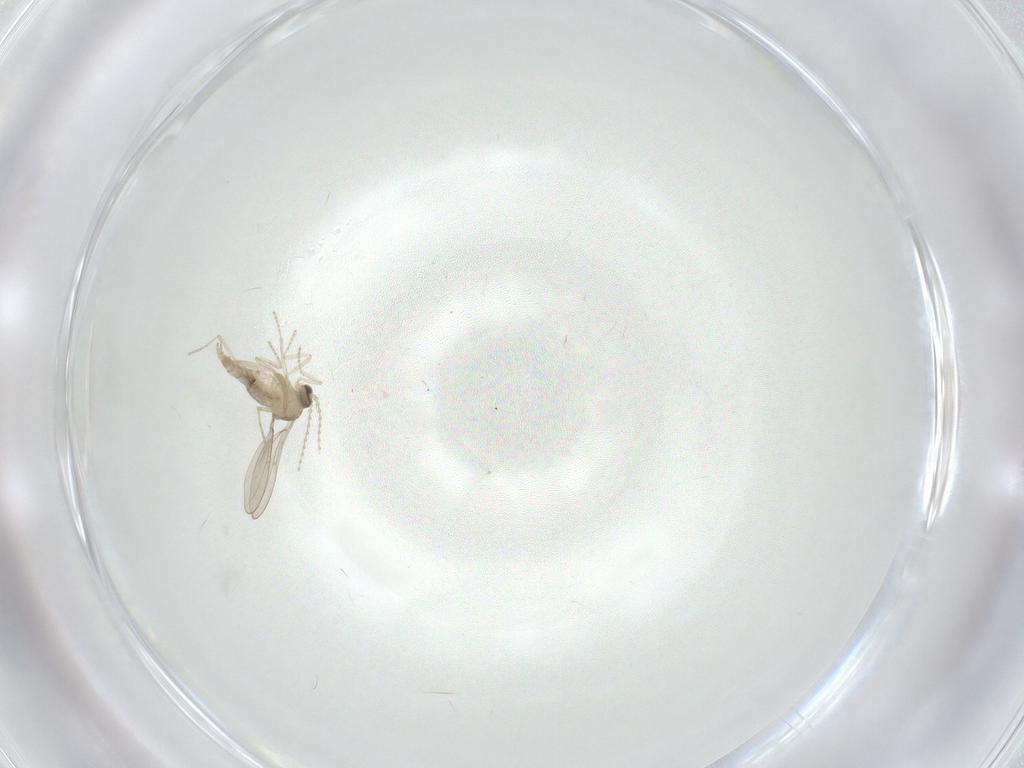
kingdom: Animalia
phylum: Arthropoda
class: Insecta
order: Diptera
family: Cecidomyiidae
